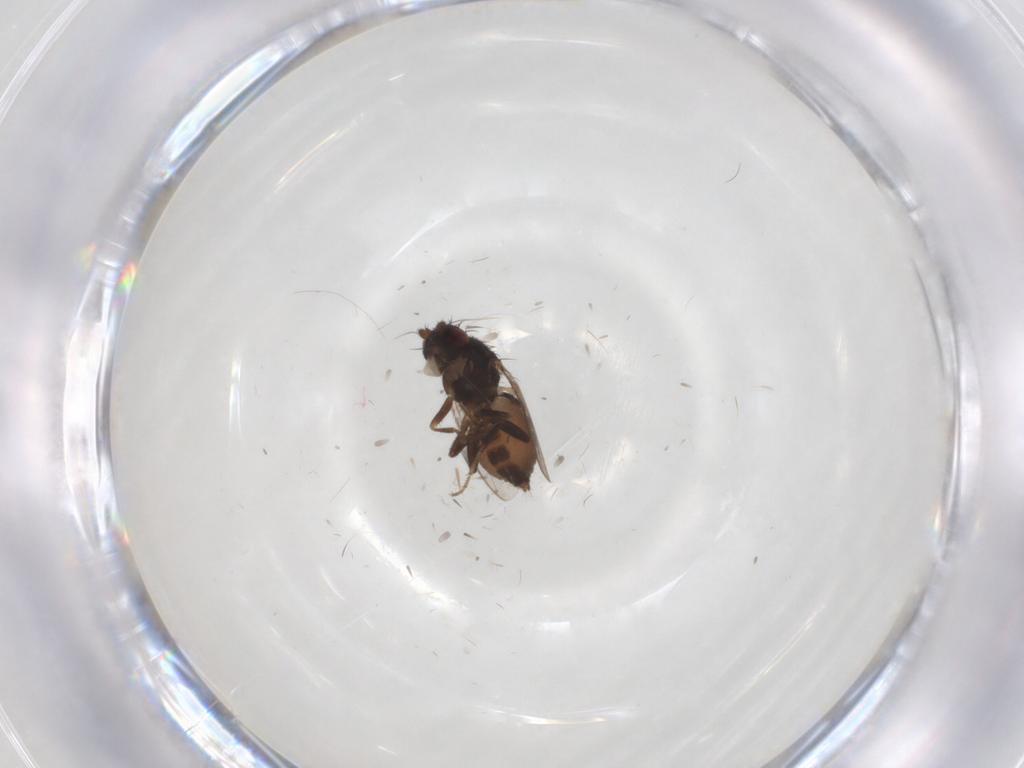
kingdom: Animalia
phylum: Arthropoda
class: Insecta
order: Diptera
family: Sphaeroceridae
